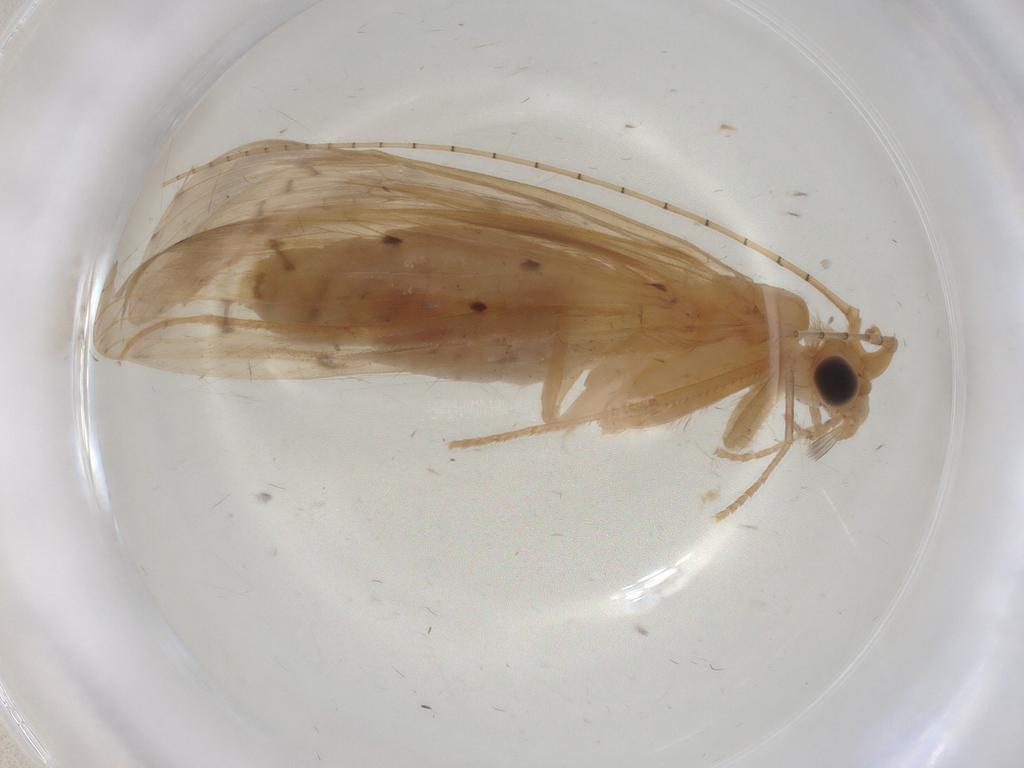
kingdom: Animalia
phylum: Arthropoda
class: Insecta
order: Trichoptera
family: Leptoceridae
